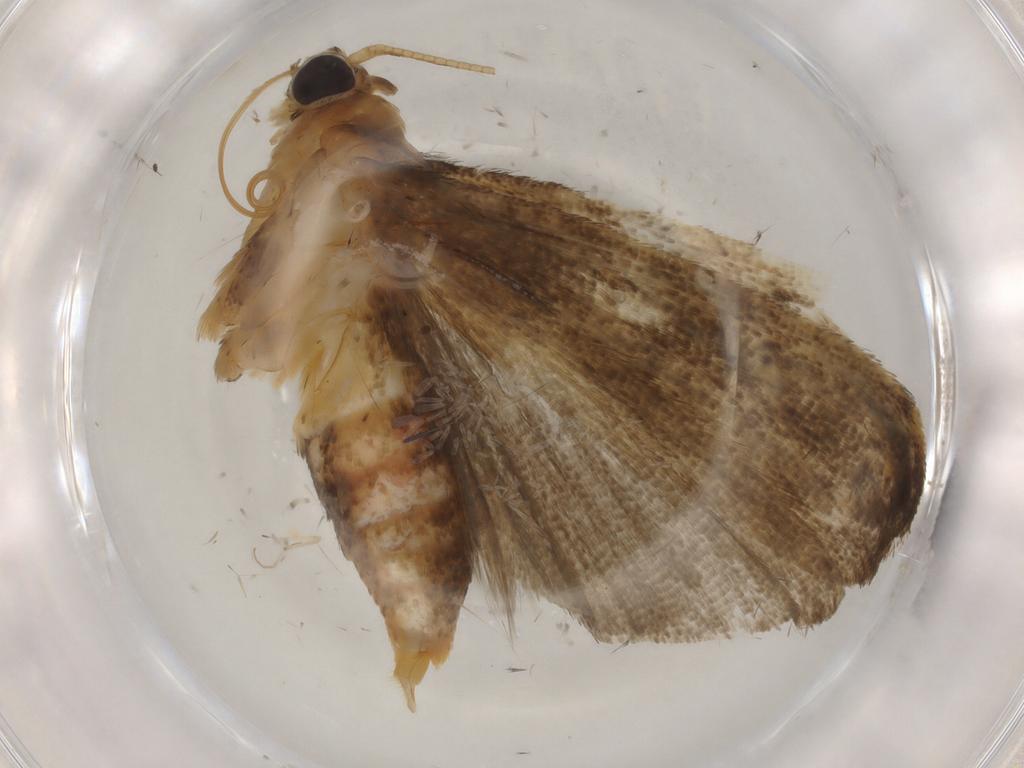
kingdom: Animalia
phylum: Arthropoda
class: Insecta
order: Lepidoptera
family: Erebidae
